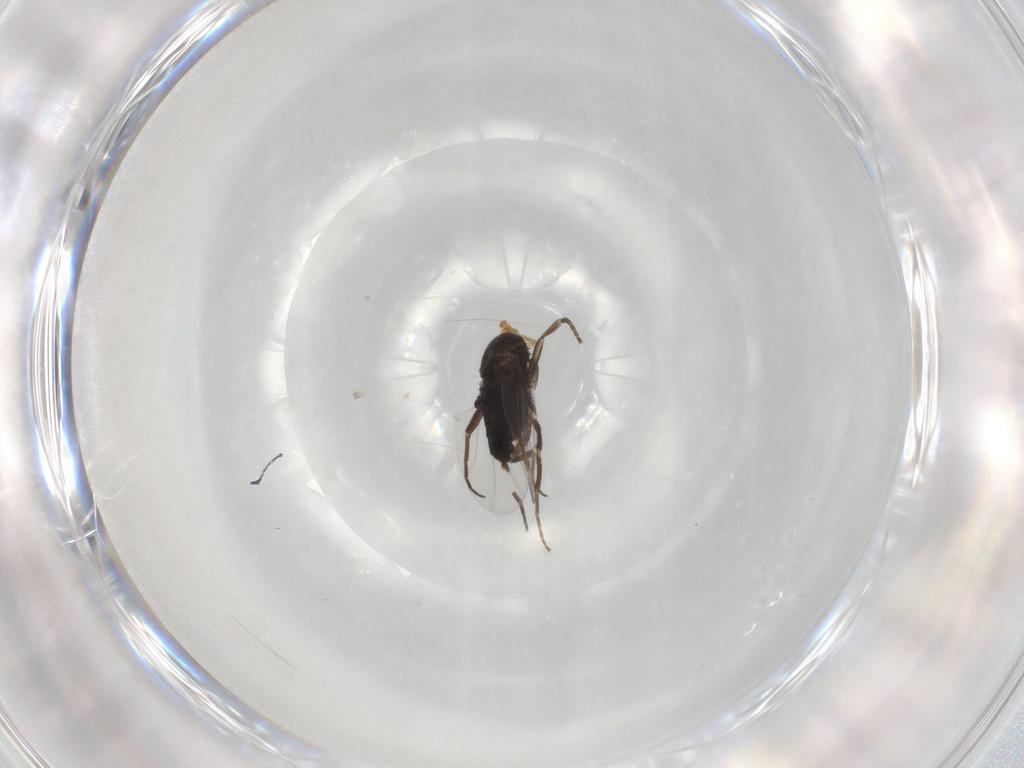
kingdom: Animalia
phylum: Arthropoda
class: Insecta
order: Diptera
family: Phoridae
